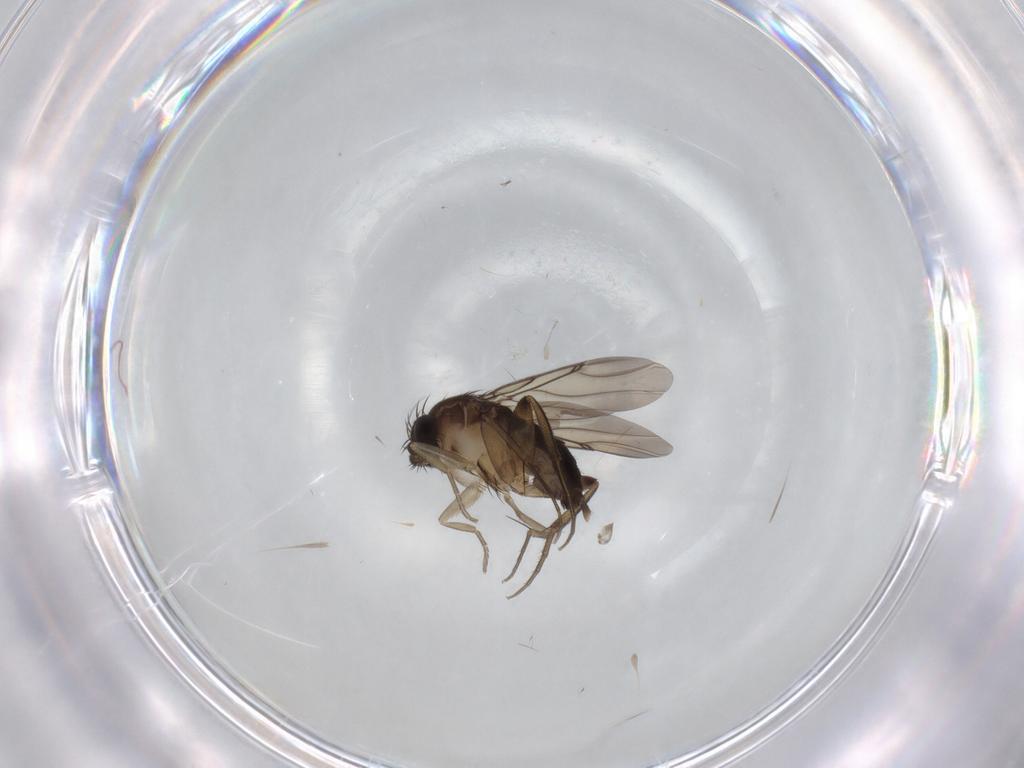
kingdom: Animalia
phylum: Arthropoda
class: Insecta
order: Diptera
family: Phoridae
